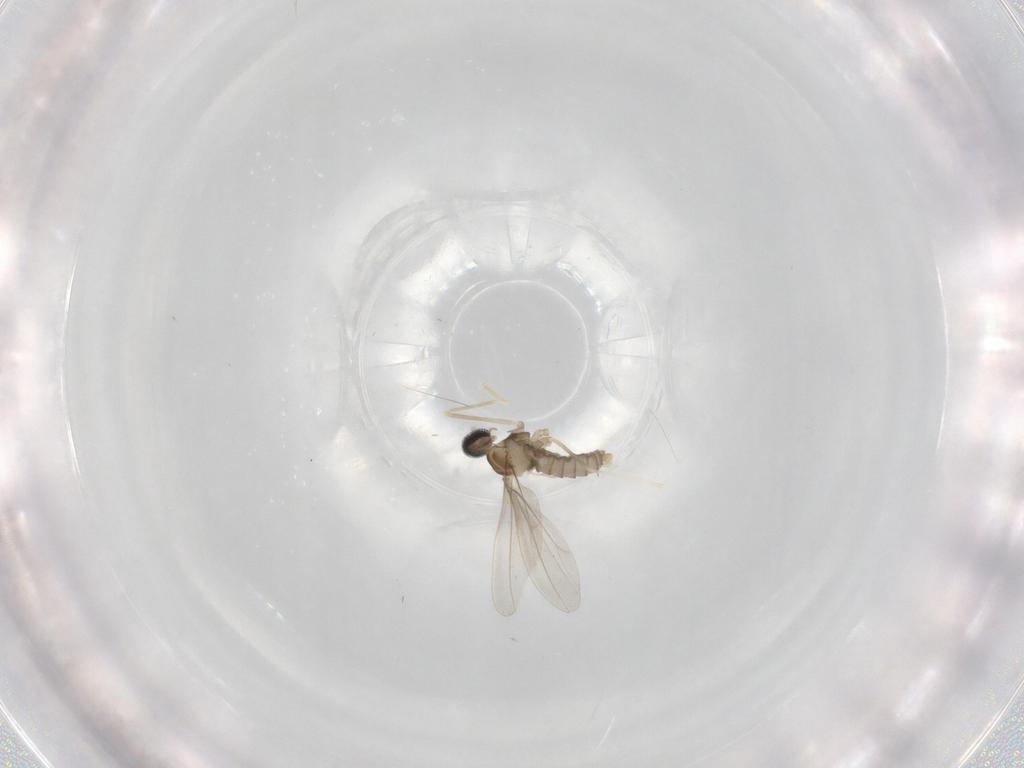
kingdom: Animalia
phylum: Arthropoda
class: Insecta
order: Diptera
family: Cecidomyiidae
